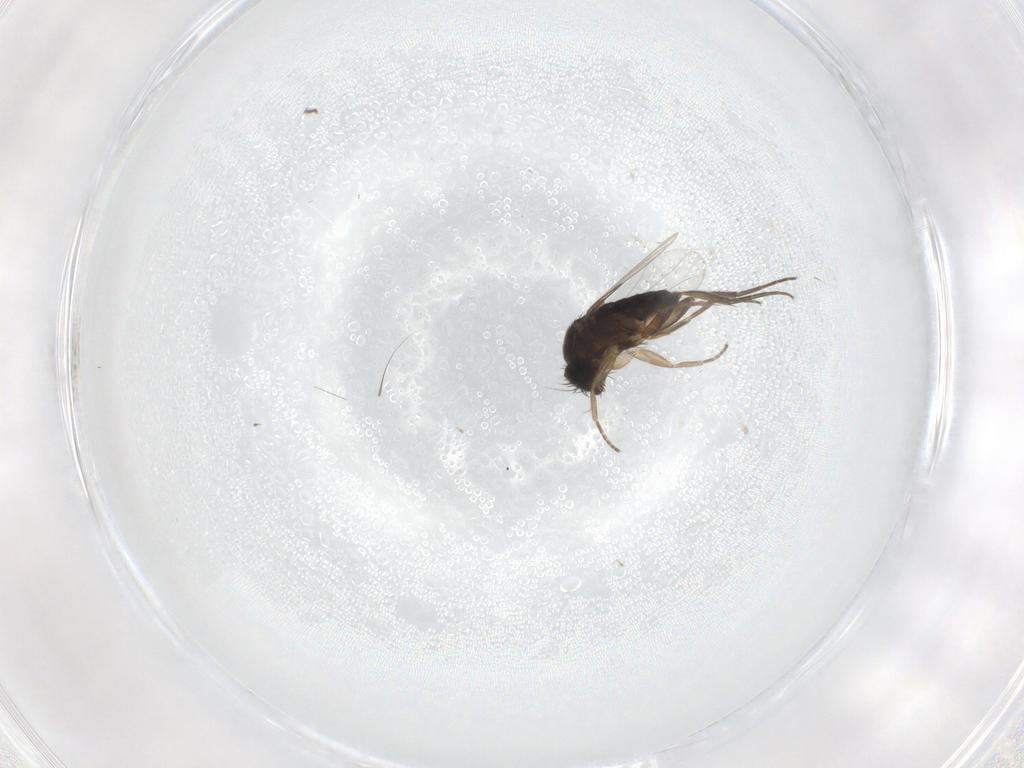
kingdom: Animalia
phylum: Arthropoda
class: Insecta
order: Diptera
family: Phoridae
